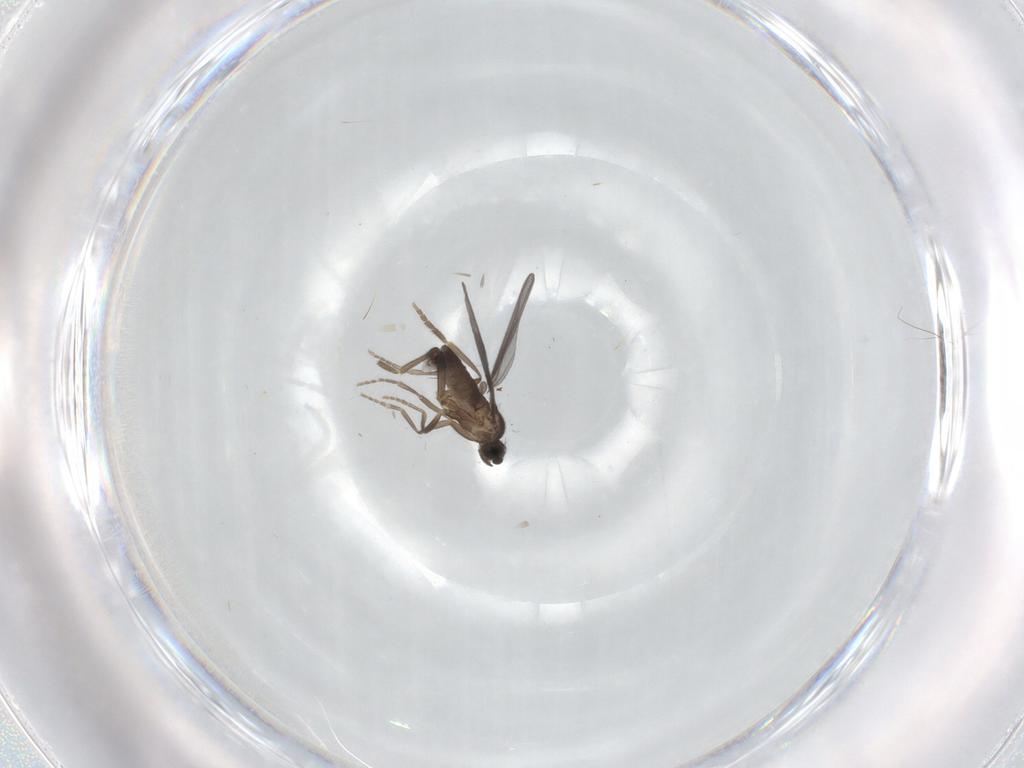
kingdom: Animalia
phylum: Arthropoda
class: Insecta
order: Diptera
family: Phoridae
